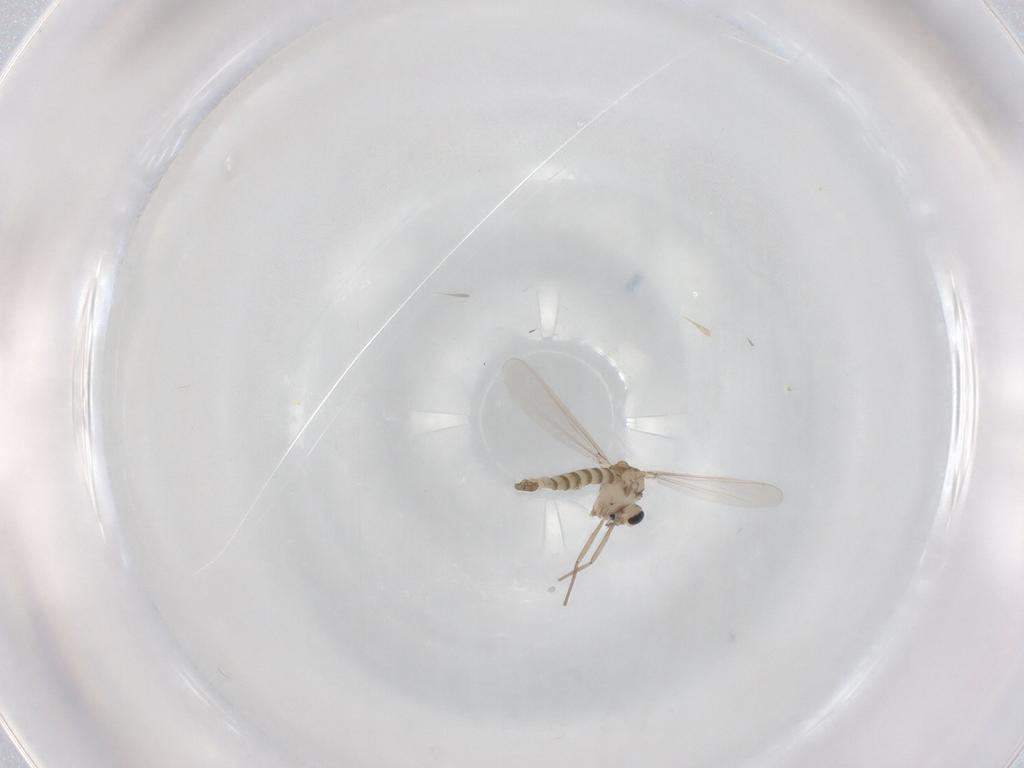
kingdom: Animalia
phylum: Arthropoda
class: Insecta
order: Diptera
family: Chironomidae
